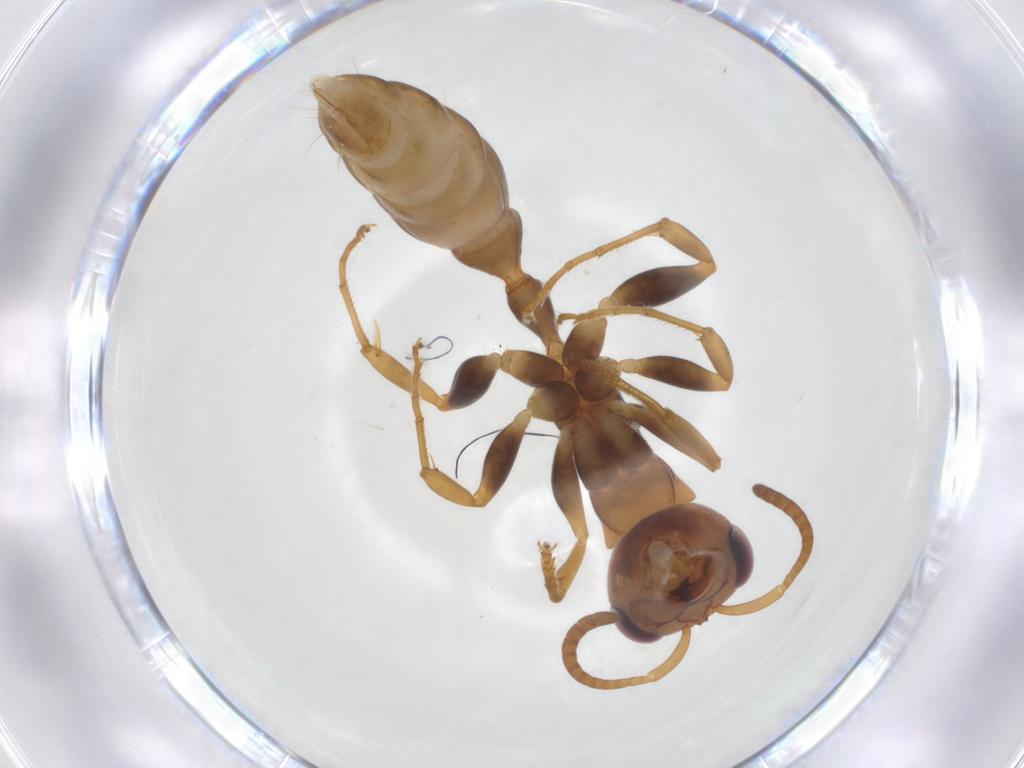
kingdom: Animalia
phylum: Arthropoda
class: Insecta
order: Hymenoptera
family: Formicidae
